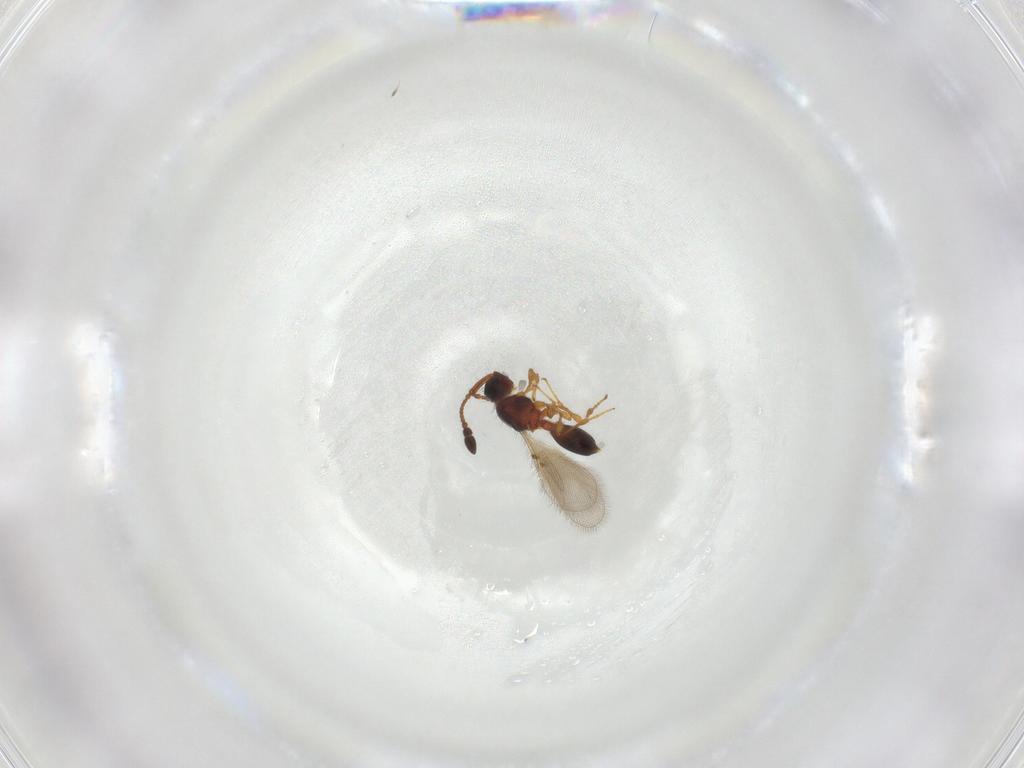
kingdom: Animalia
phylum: Arthropoda
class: Insecta
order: Hymenoptera
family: Diapriidae
